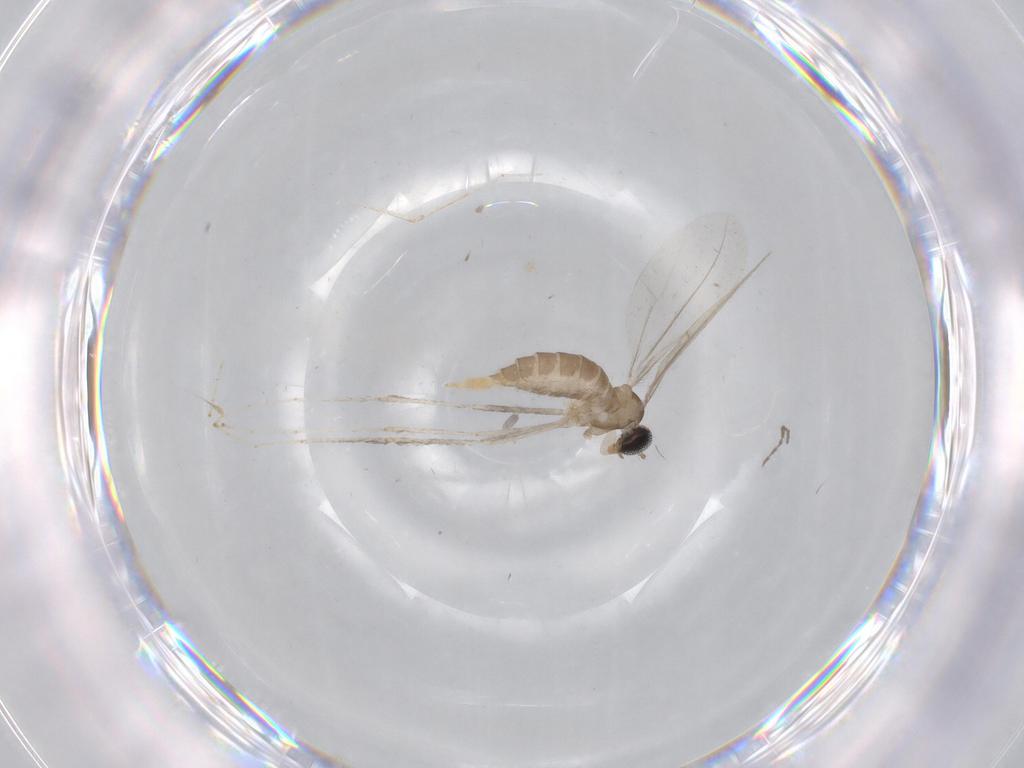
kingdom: Animalia
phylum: Arthropoda
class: Insecta
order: Diptera
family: Cecidomyiidae
